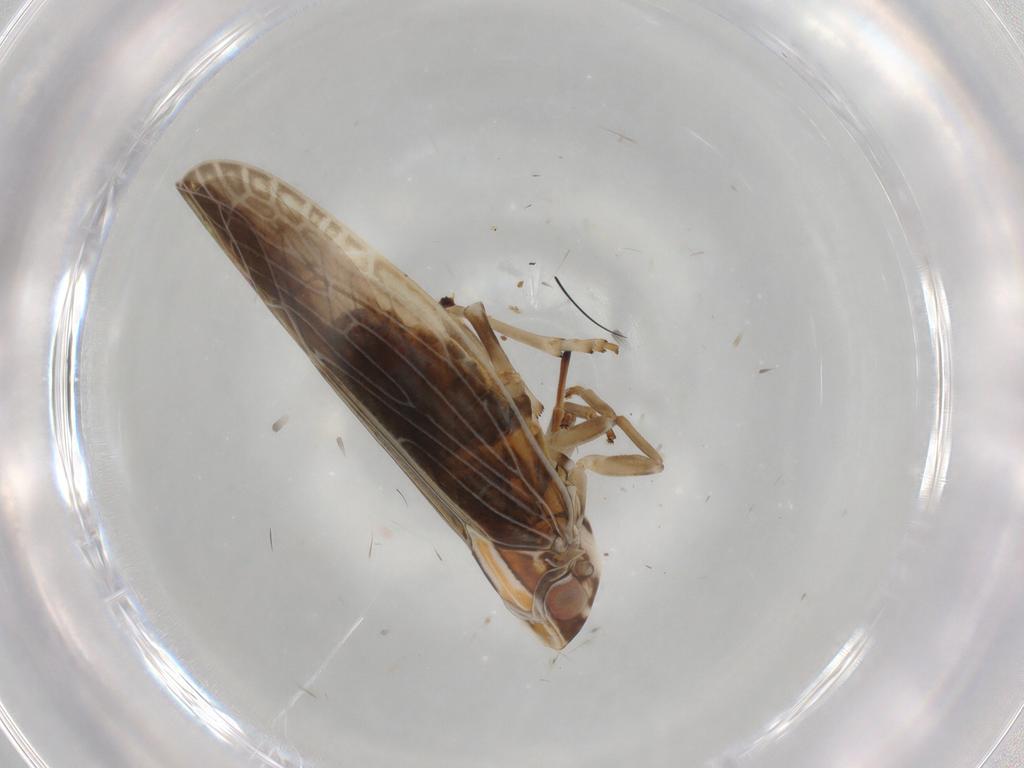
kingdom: Animalia
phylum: Arthropoda
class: Insecta
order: Hemiptera
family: Achilidae
